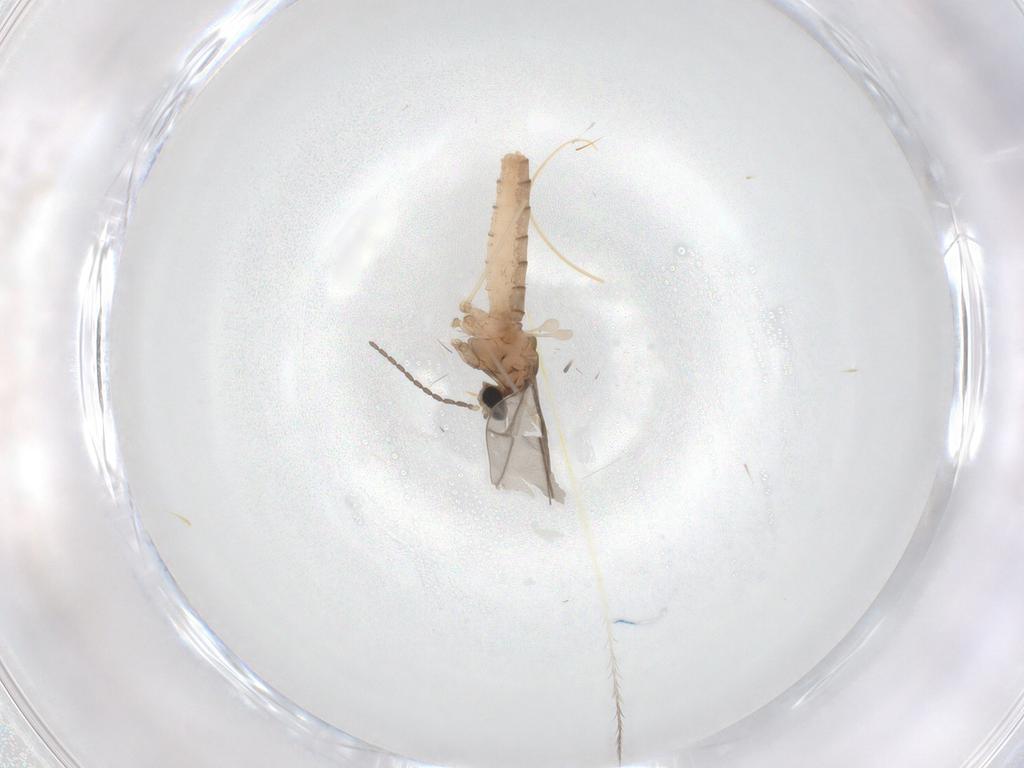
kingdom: Animalia
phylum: Arthropoda
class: Insecta
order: Diptera
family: Cecidomyiidae
